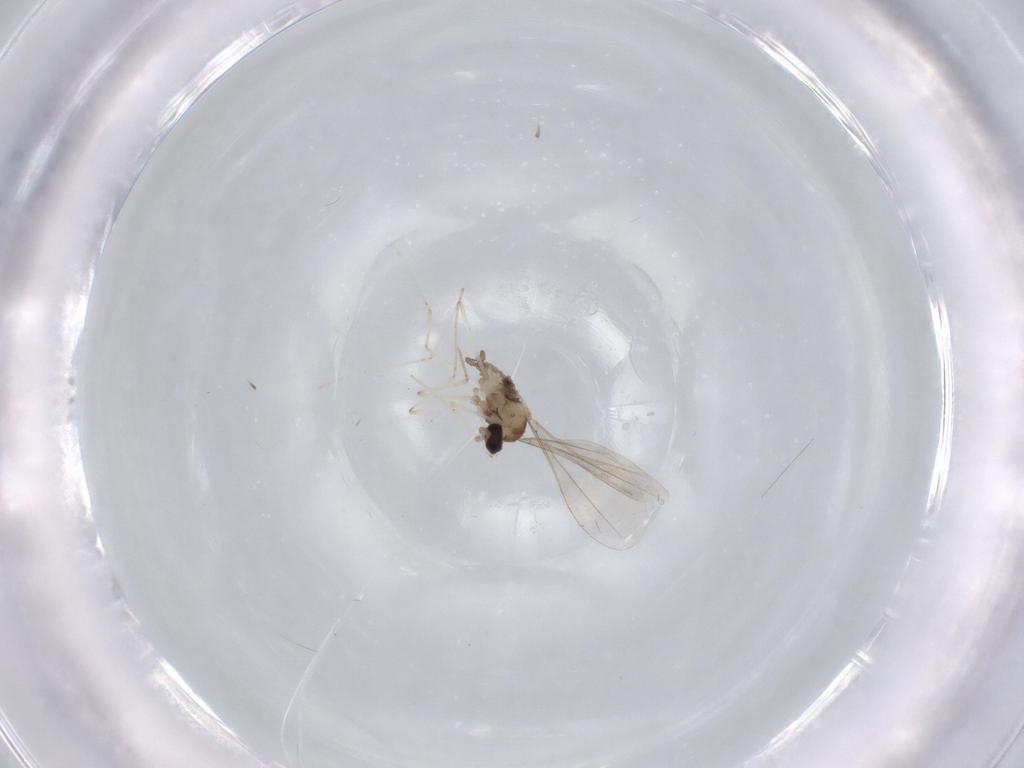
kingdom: Animalia
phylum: Arthropoda
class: Insecta
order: Diptera
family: Cecidomyiidae
